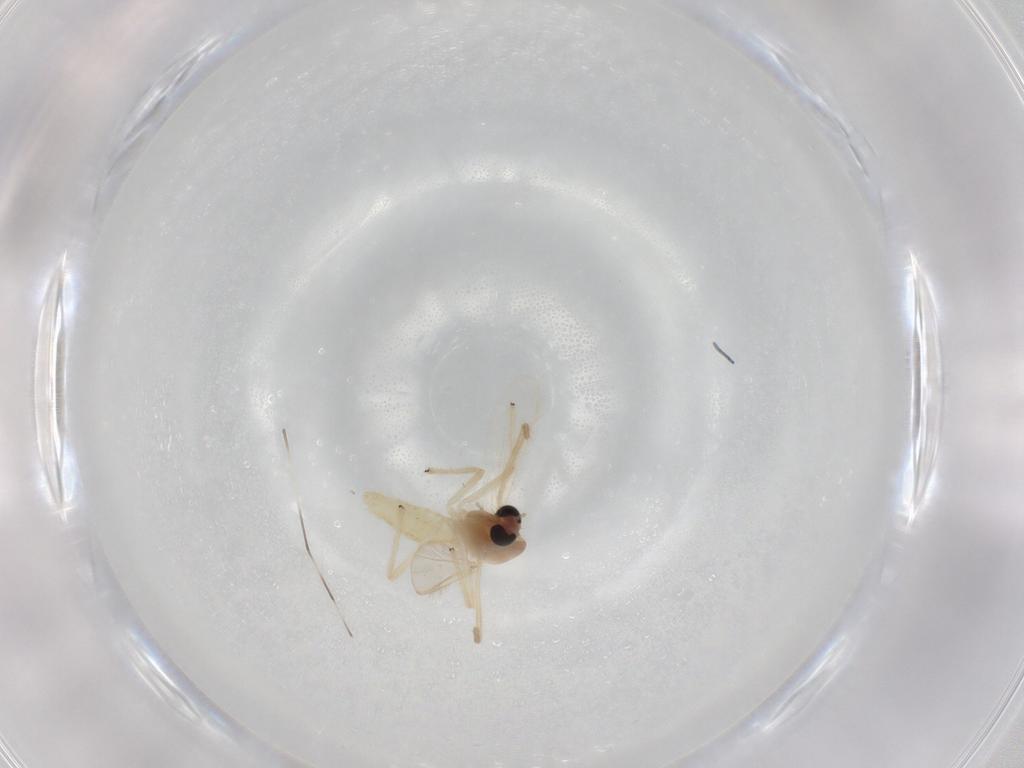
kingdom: Animalia
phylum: Arthropoda
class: Insecta
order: Diptera
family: Chironomidae
